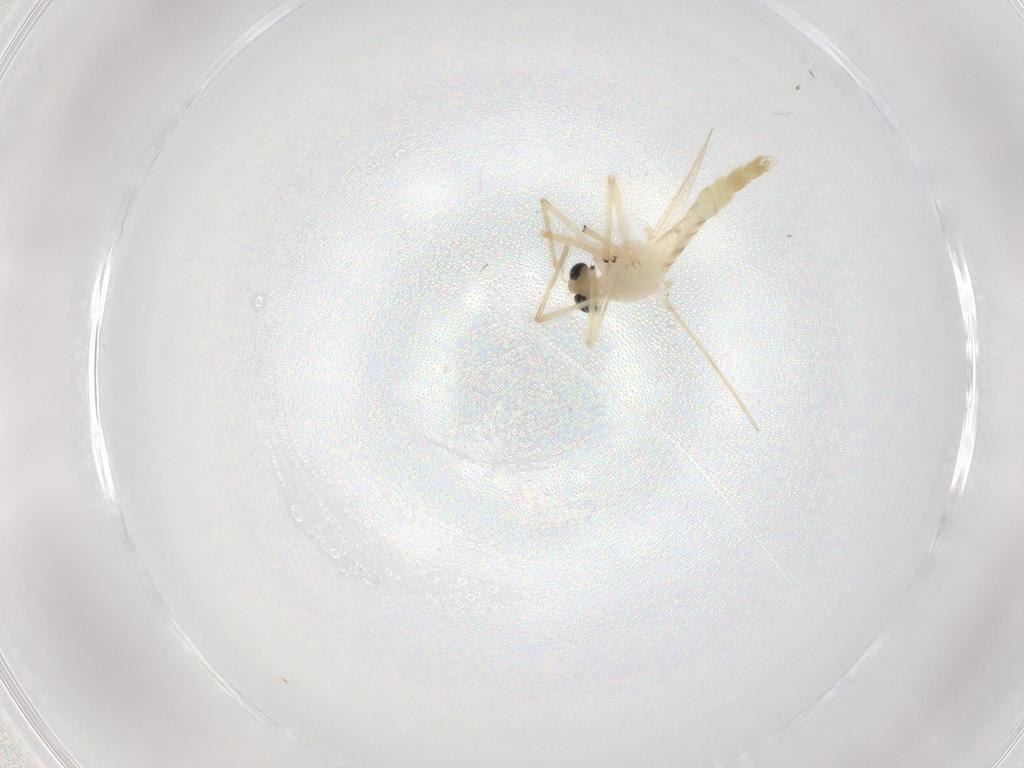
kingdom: Animalia
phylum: Arthropoda
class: Insecta
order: Diptera
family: Chironomidae
